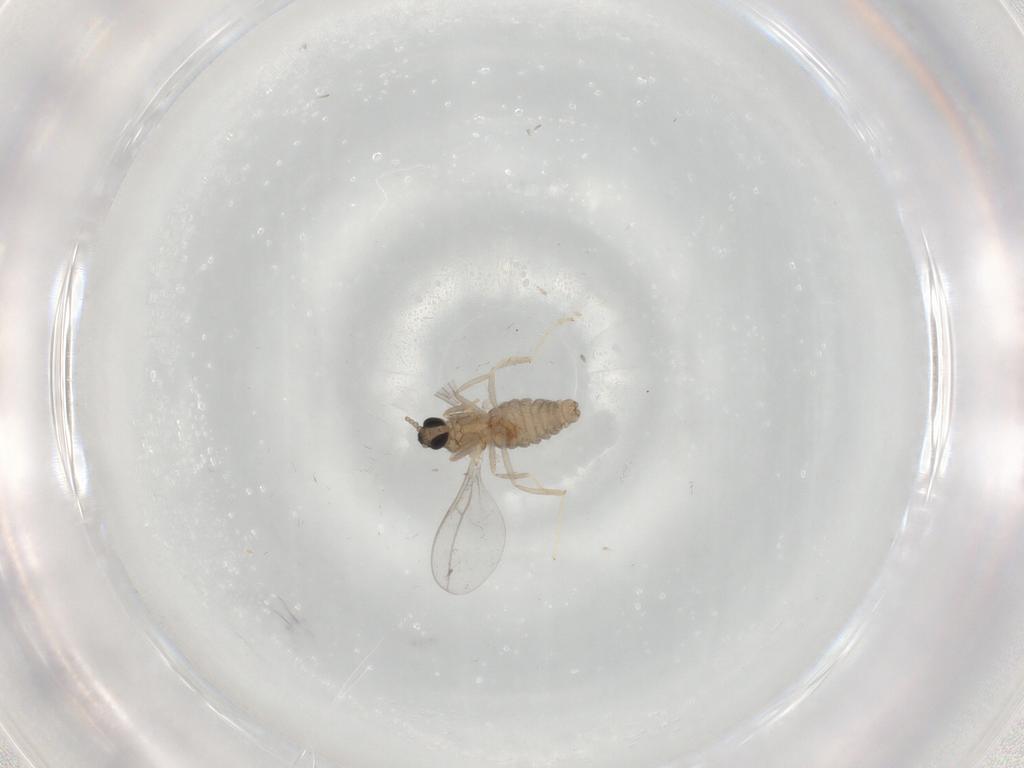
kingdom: Animalia
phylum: Arthropoda
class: Insecta
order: Diptera
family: Cecidomyiidae
